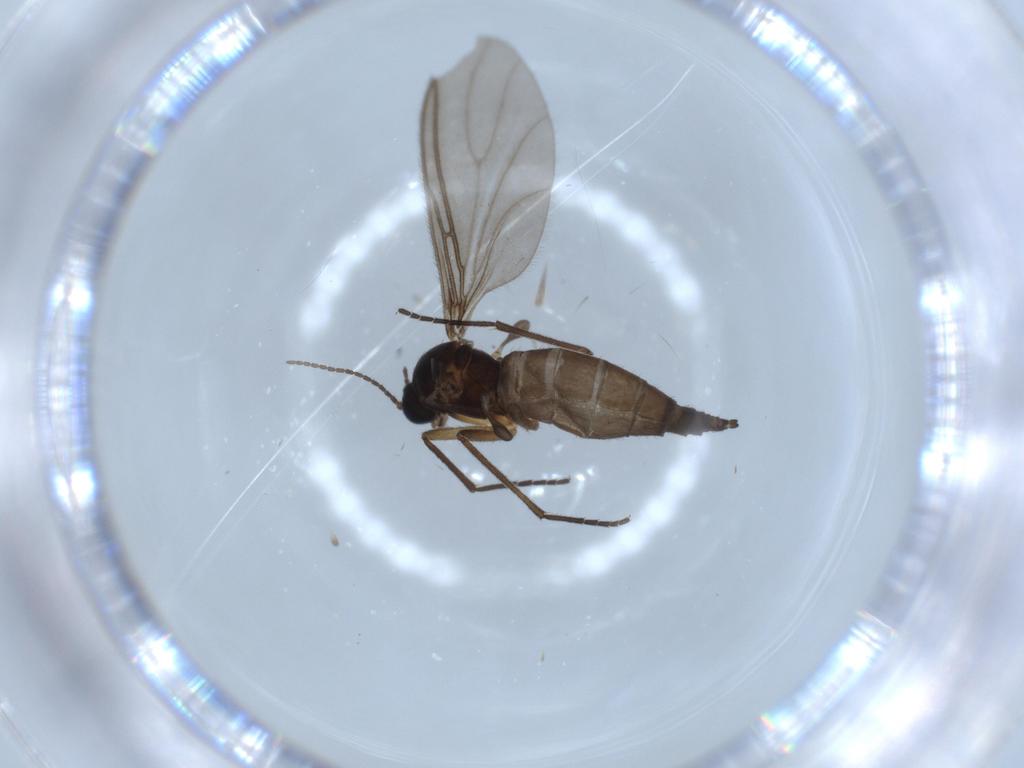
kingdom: Animalia
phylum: Arthropoda
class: Insecta
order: Diptera
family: Sciaridae
